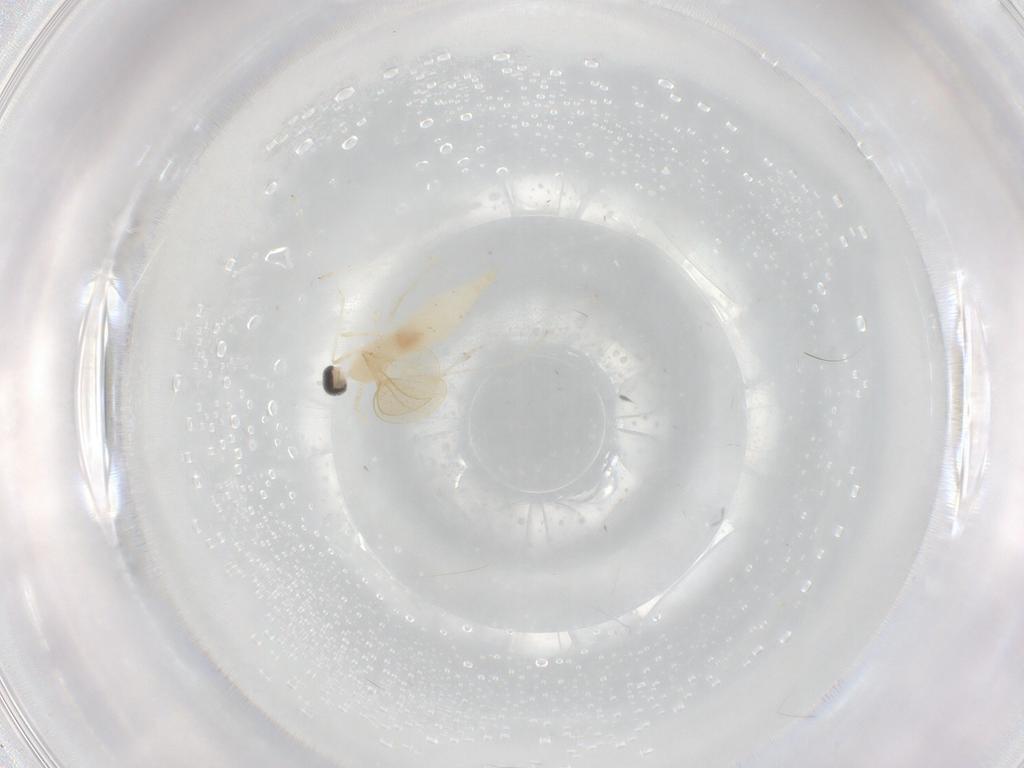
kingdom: Animalia
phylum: Arthropoda
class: Insecta
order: Diptera
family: Cecidomyiidae
